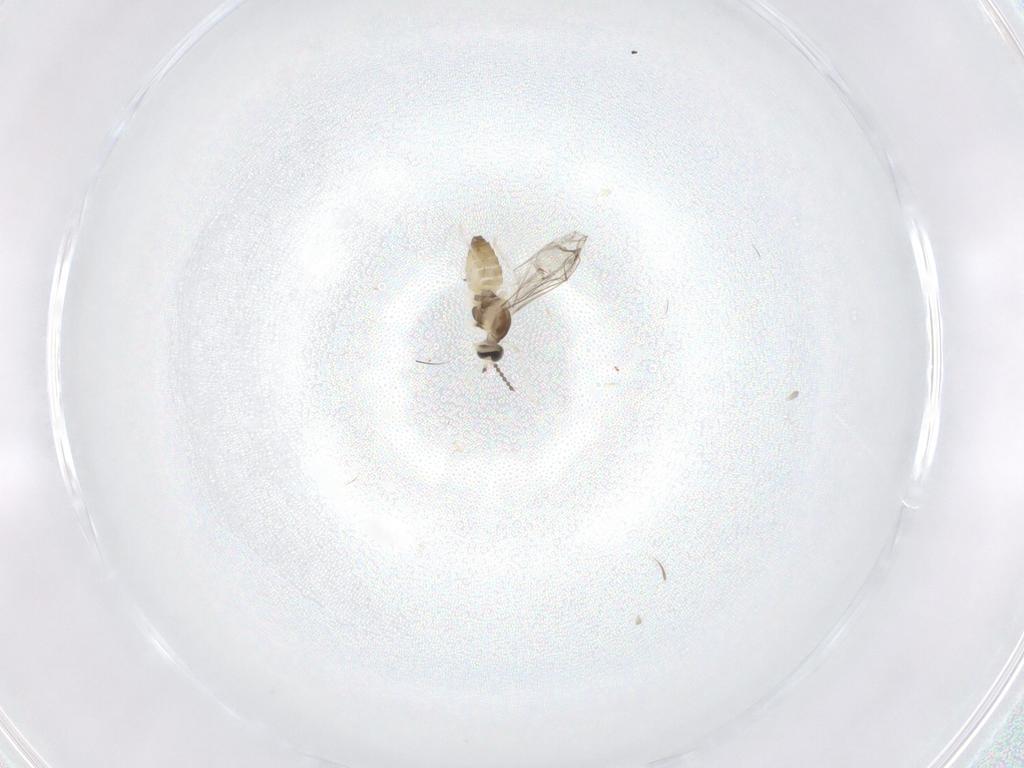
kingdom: Animalia
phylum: Arthropoda
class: Insecta
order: Diptera
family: Cecidomyiidae
